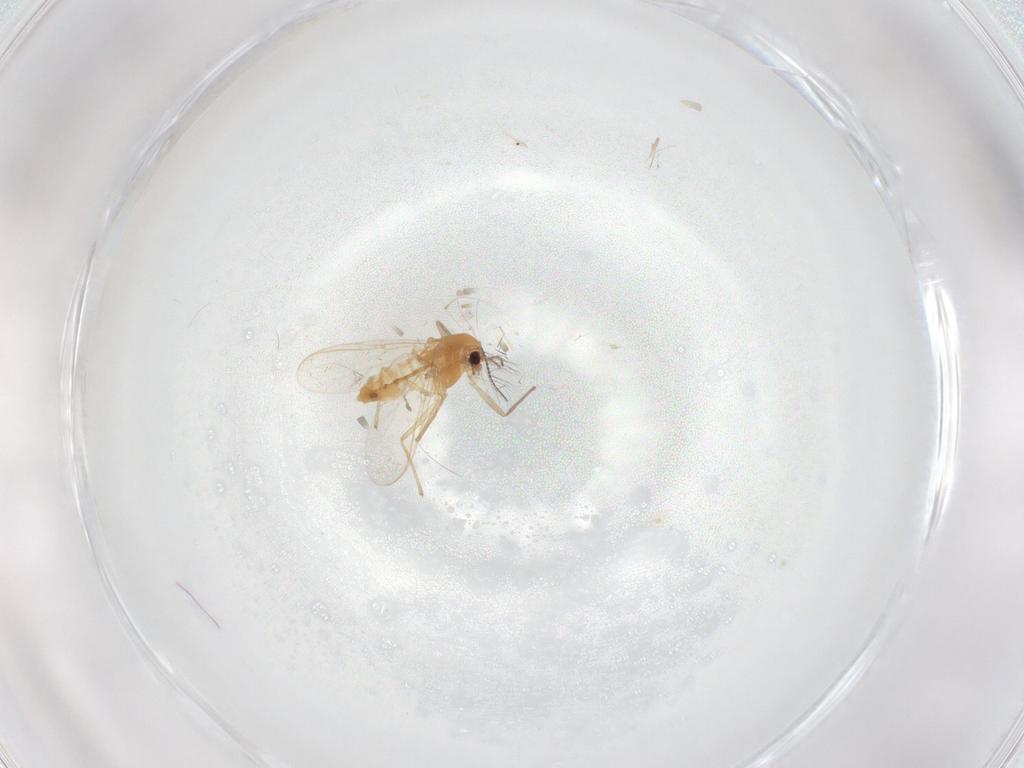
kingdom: Animalia
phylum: Arthropoda
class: Insecta
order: Diptera
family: Chironomidae
